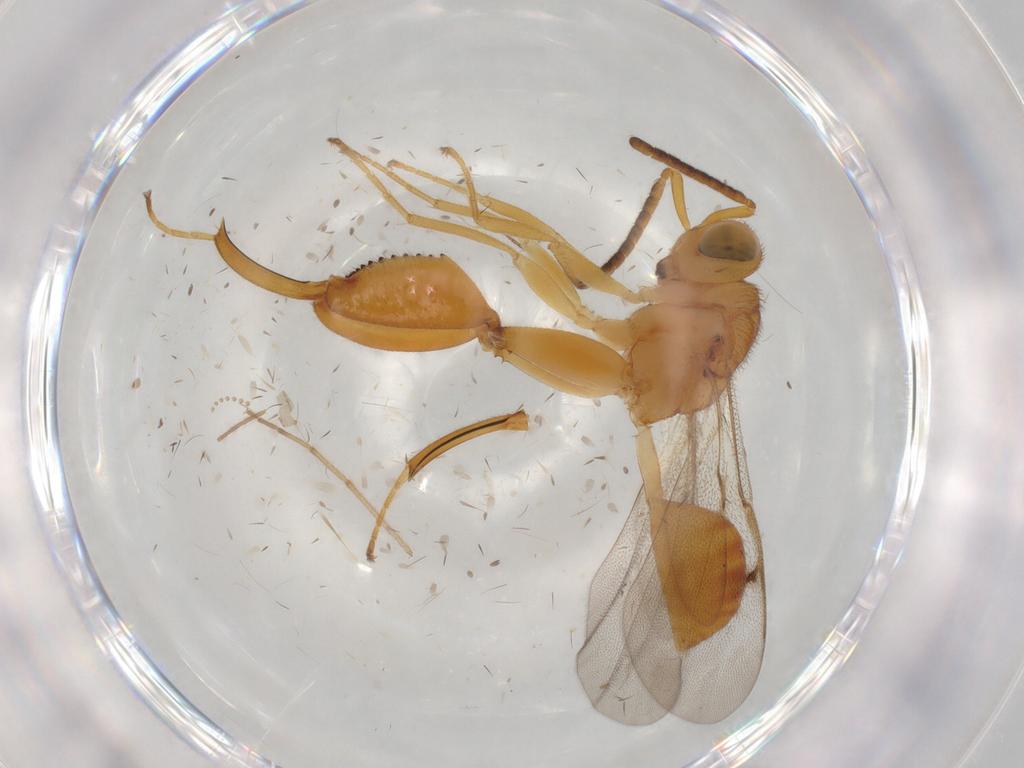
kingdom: Animalia
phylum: Arthropoda
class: Insecta
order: Hymenoptera
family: Chalcididae
